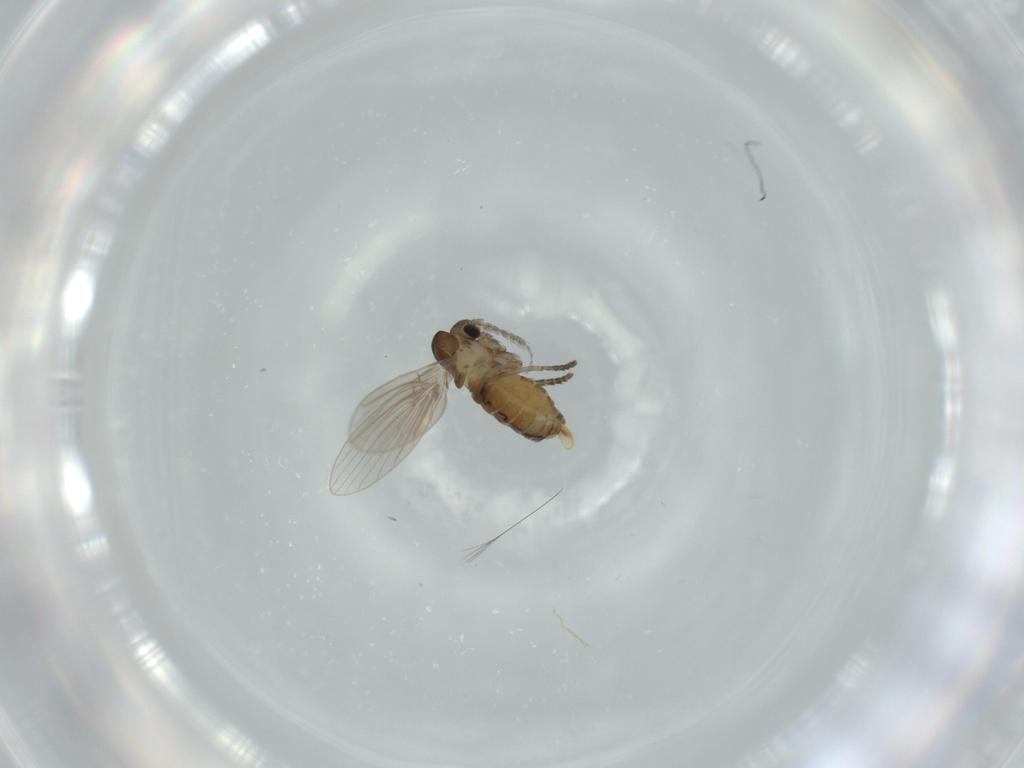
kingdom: Animalia
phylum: Arthropoda
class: Insecta
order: Diptera
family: Psychodidae
